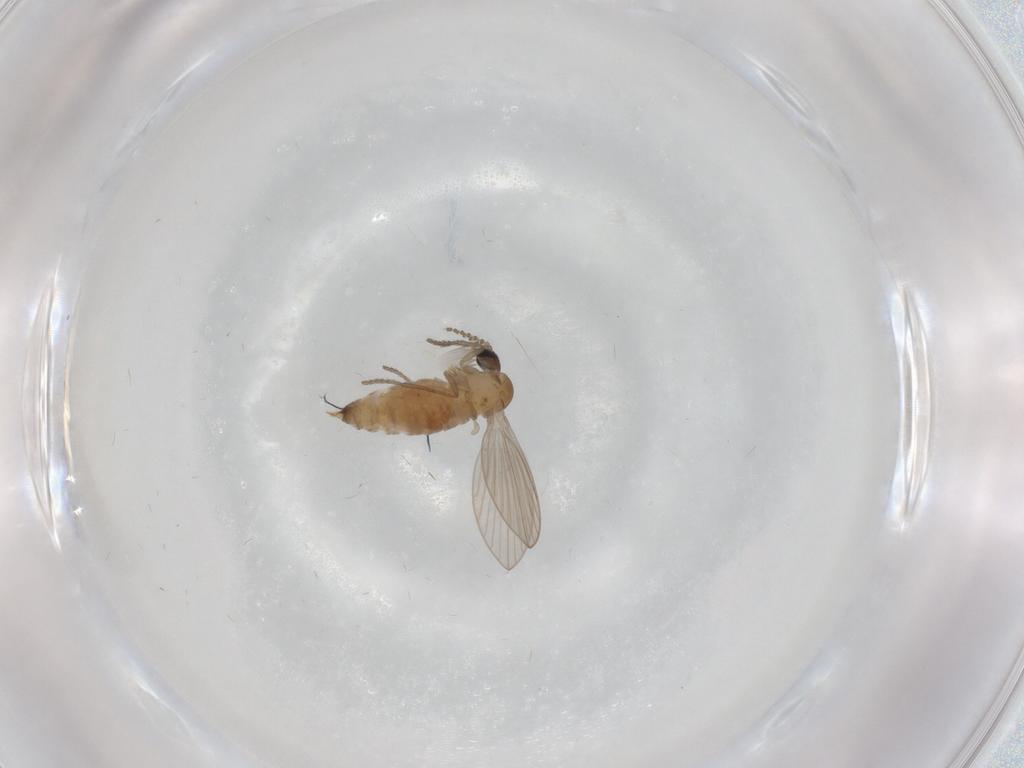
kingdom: Animalia
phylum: Arthropoda
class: Insecta
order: Diptera
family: Psychodidae
